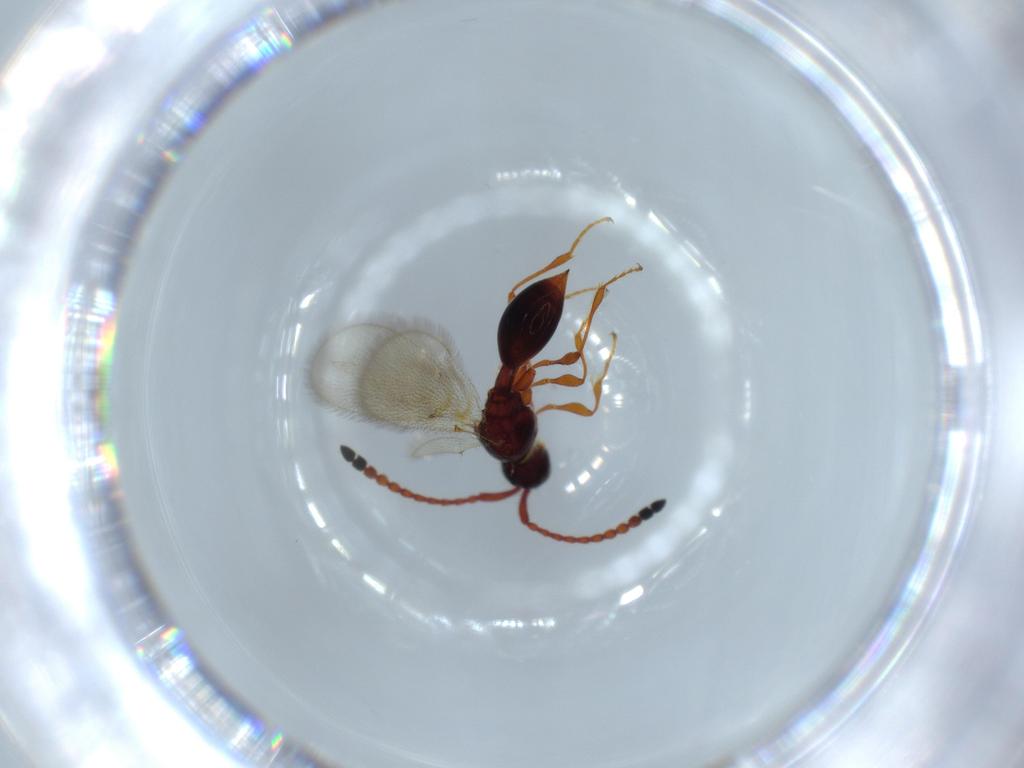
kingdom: Animalia
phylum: Arthropoda
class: Insecta
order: Hymenoptera
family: Diapriidae
